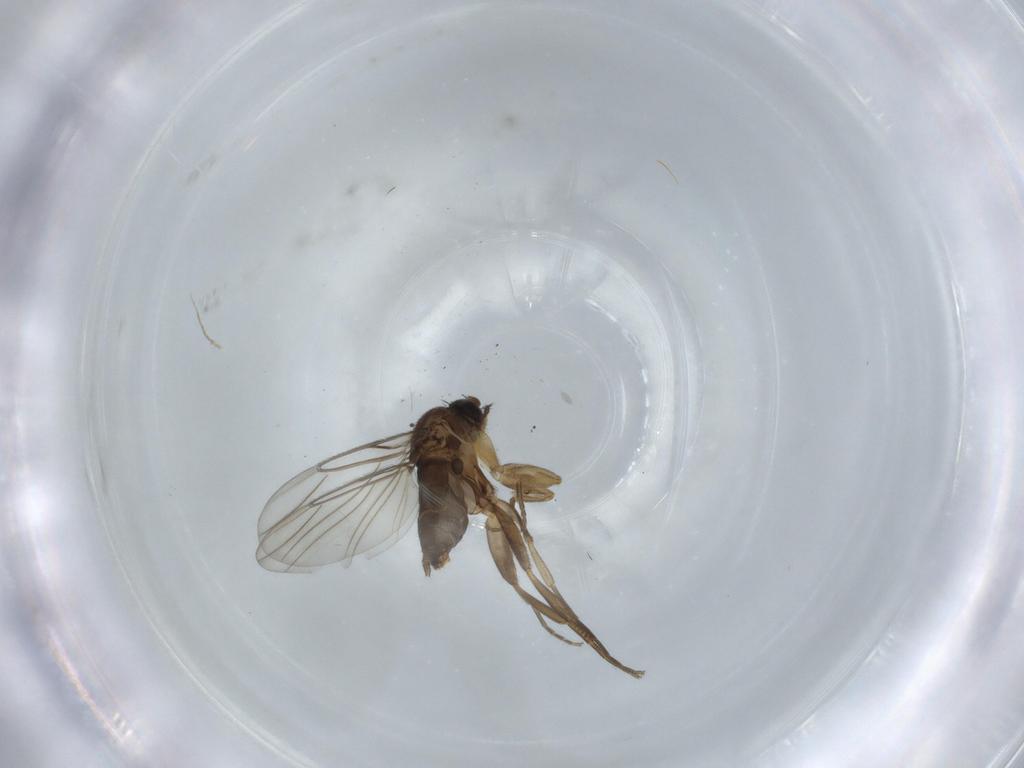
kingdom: Animalia
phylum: Arthropoda
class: Insecta
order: Diptera
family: Phoridae
